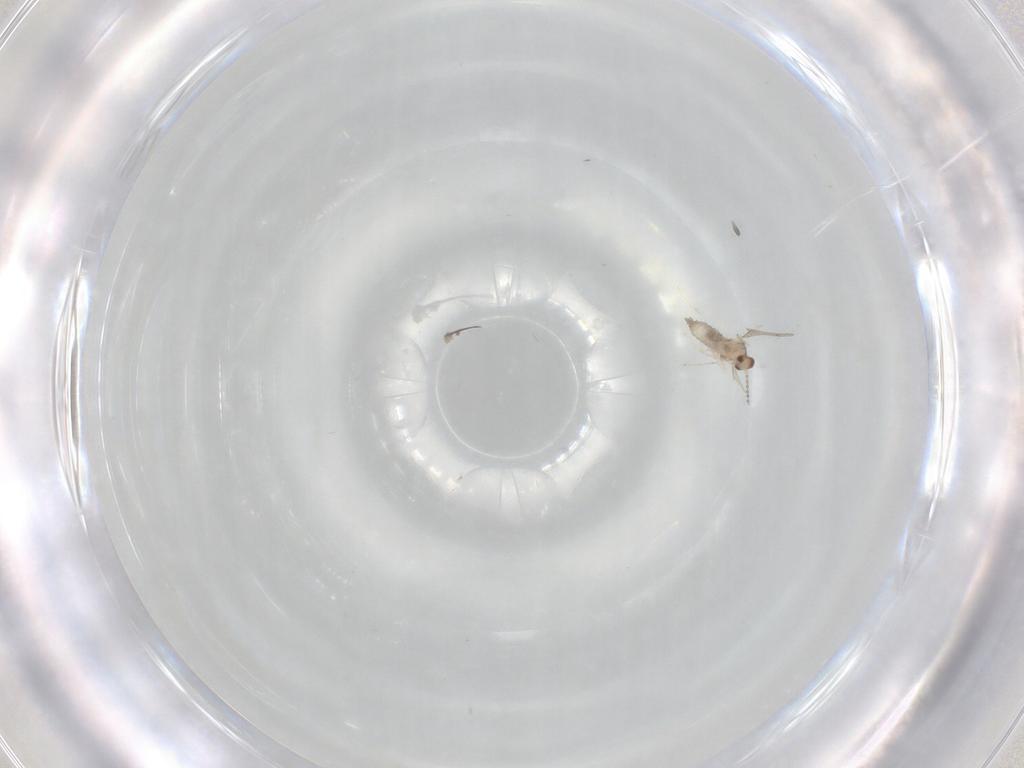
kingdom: Animalia
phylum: Arthropoda
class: Insecta
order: Diptera
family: Cecidomyiidae
